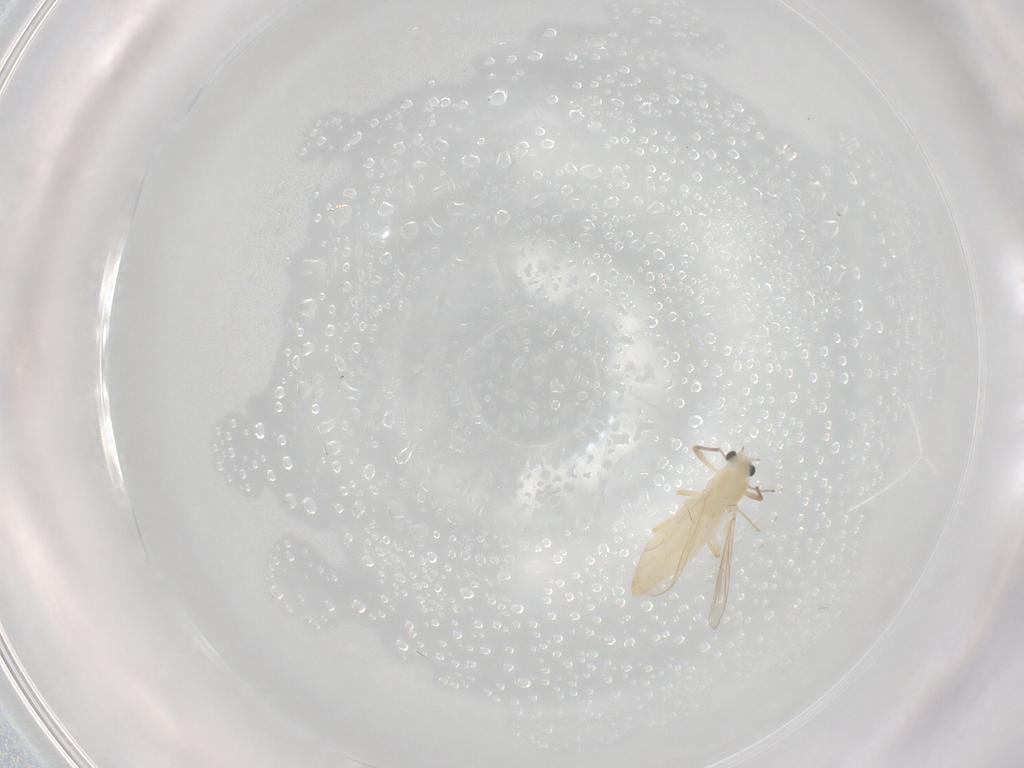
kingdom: Animalia
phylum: Arthropoda
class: Insecta
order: Diptera
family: Chironomidae
